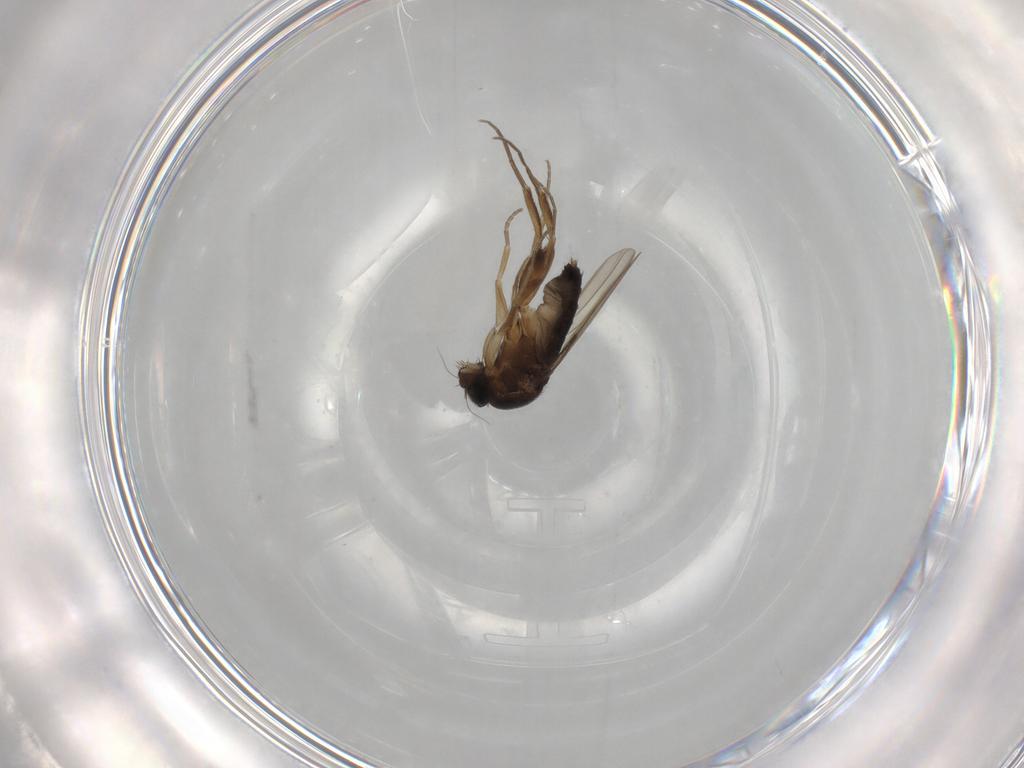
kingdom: Animalia
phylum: Arthropoda
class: Insecta
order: Diptera
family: Phoridae
